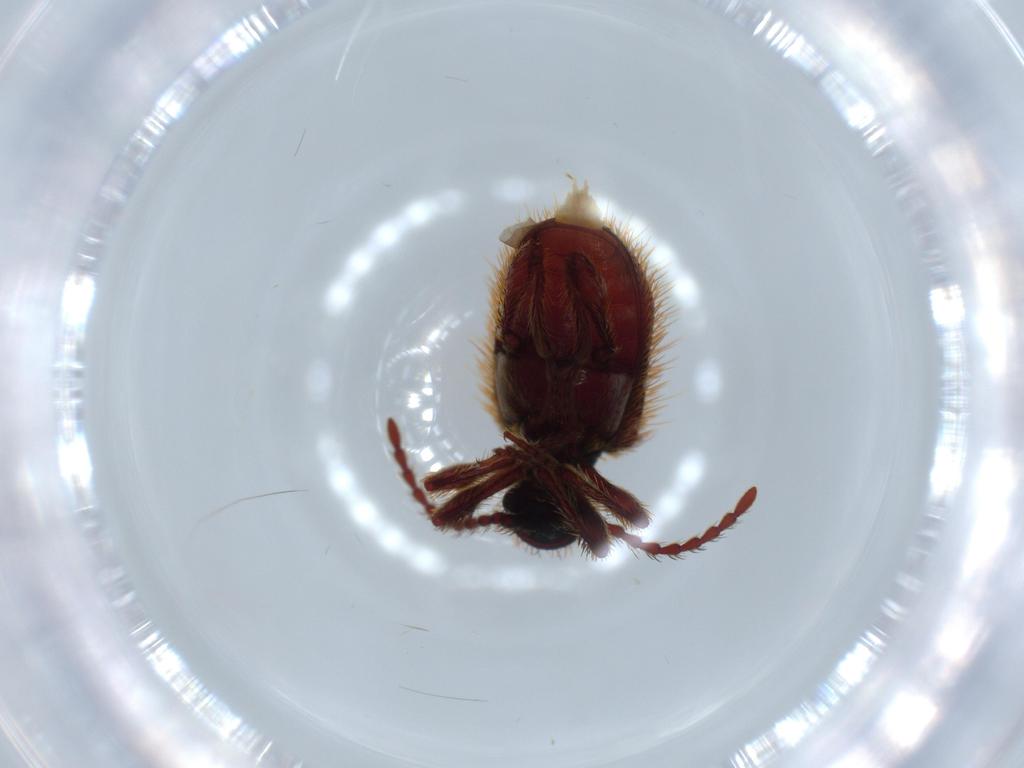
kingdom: Animalia
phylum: Arthropoda
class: Insecta
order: Coleoptera
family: Ptinidae
